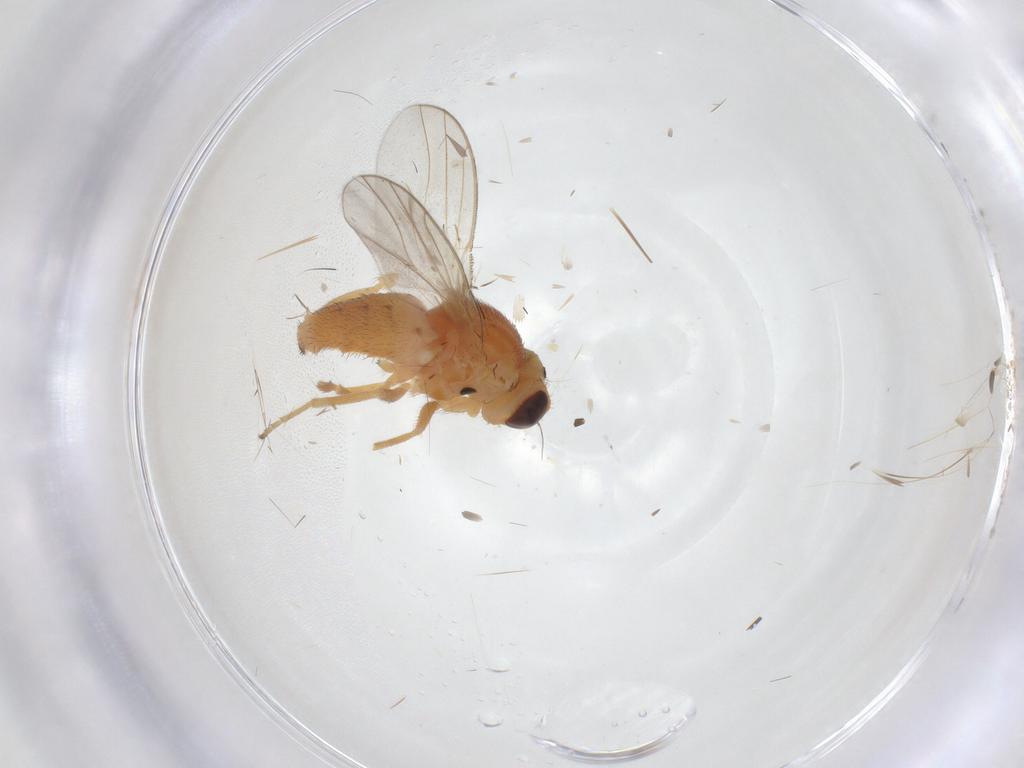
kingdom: Animalia
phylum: Arthropoda
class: Insecta
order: Diptera
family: Chloropidae
